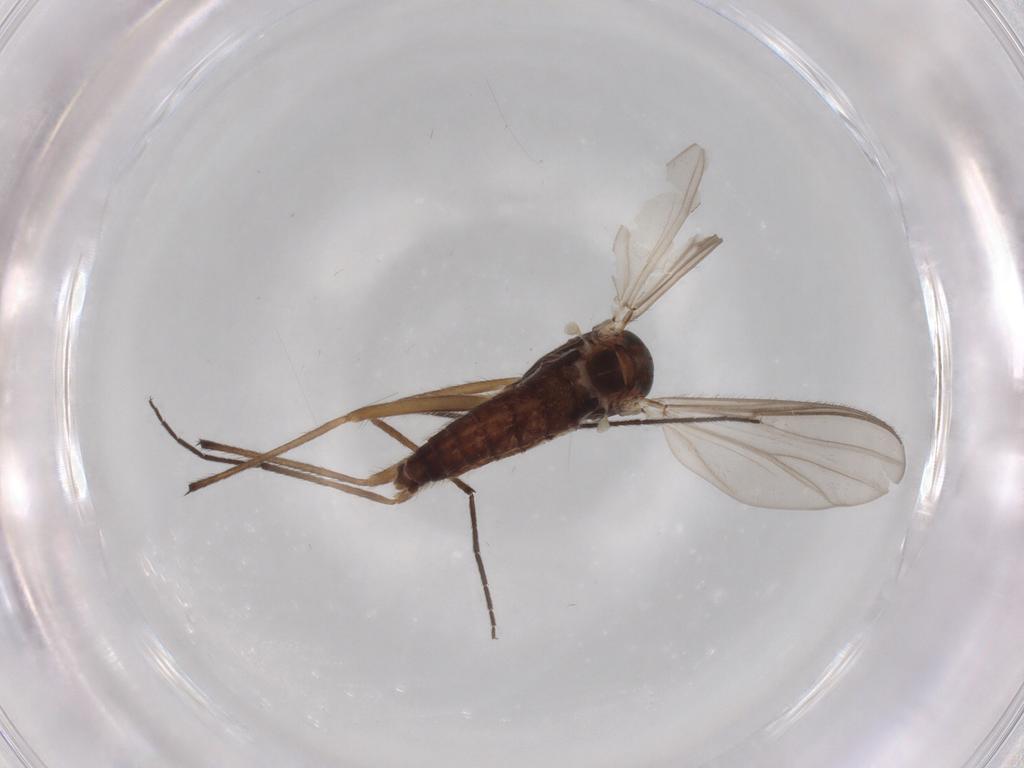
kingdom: Animalia
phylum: Arthropoda
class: Insecta
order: Diptera
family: Chironomidae
